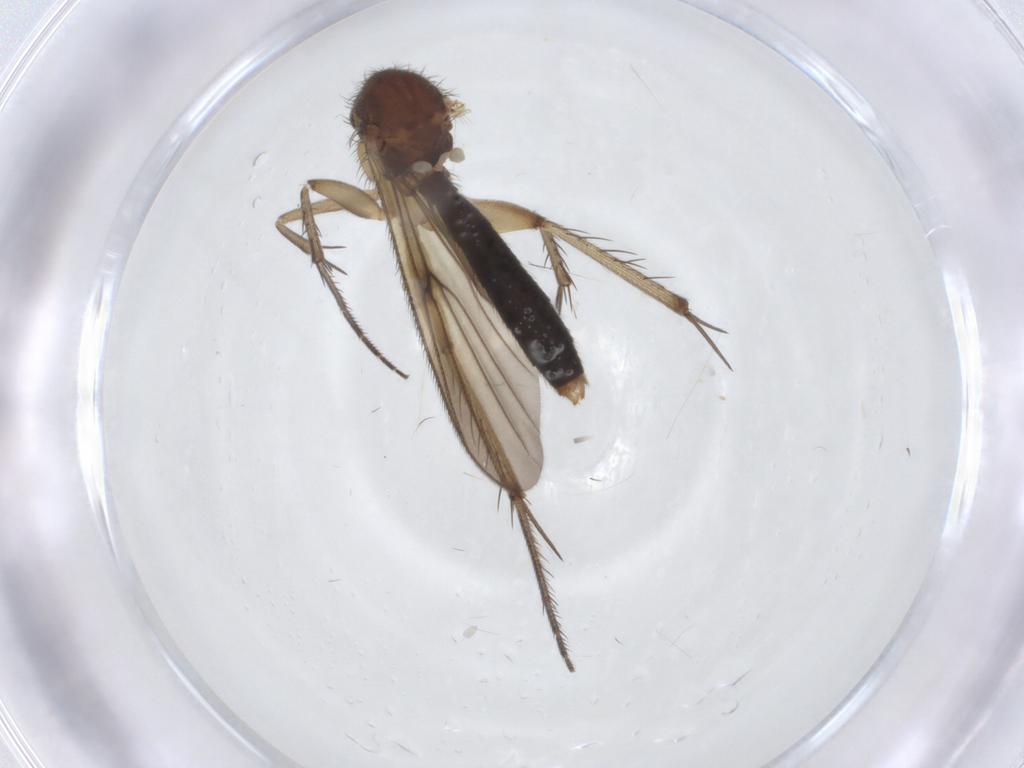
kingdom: Animalia
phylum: Arthropoda
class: Insecta
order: Diptera
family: Mycetophilidae
